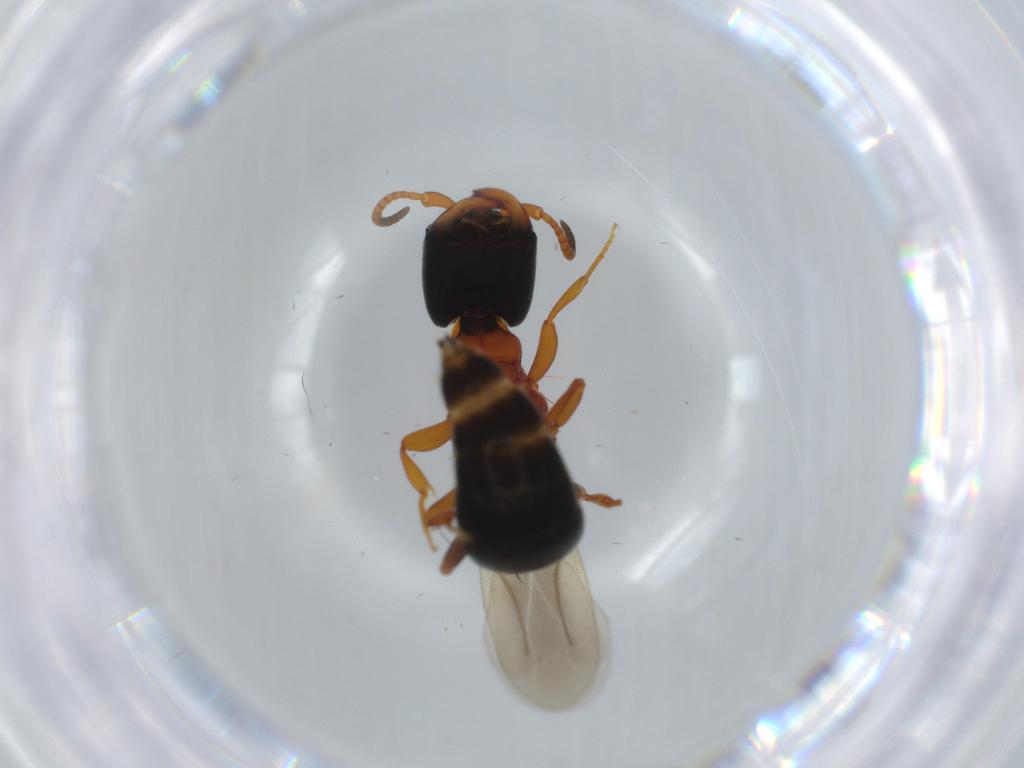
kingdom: Animalia
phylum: Arthropoda
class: Insecta
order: Hymenoptera
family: Bethylidae
